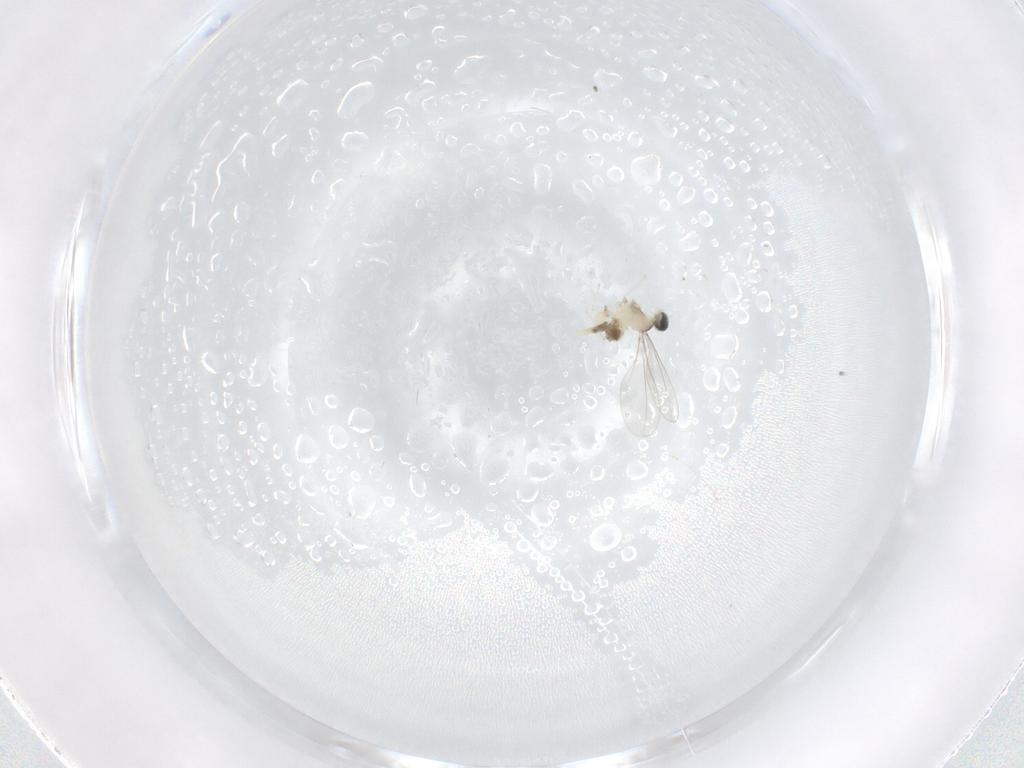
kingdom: Animalia
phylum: Arthropoda
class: Insecta
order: Diptera
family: Cecidomyiidae
